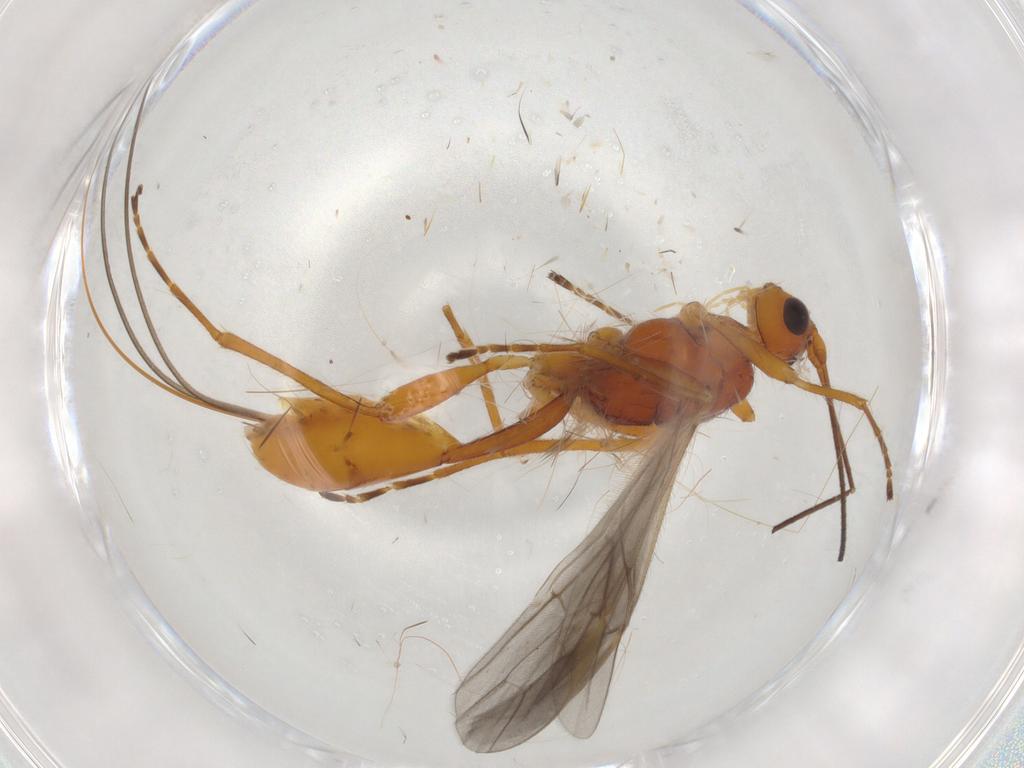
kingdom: Animalia
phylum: Arthropoda
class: Insecta
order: Hymenoptera
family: Braconidae
